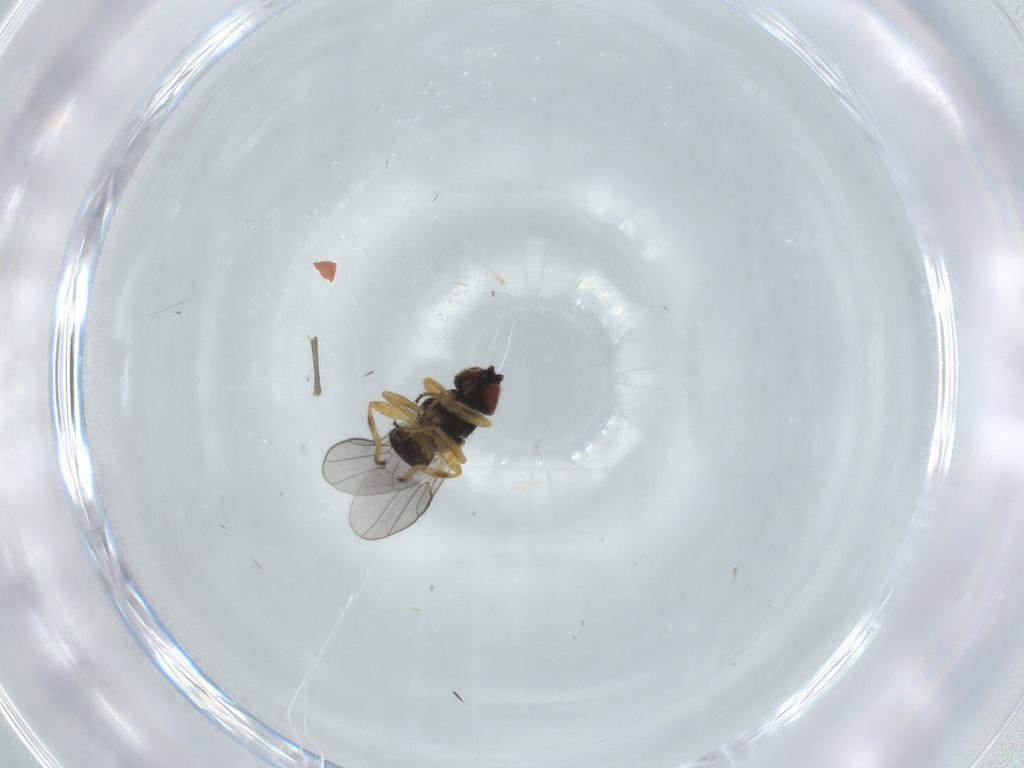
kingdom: Animalia
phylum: Arthropoda
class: Insecta
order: Diptera
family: Chloropidae
